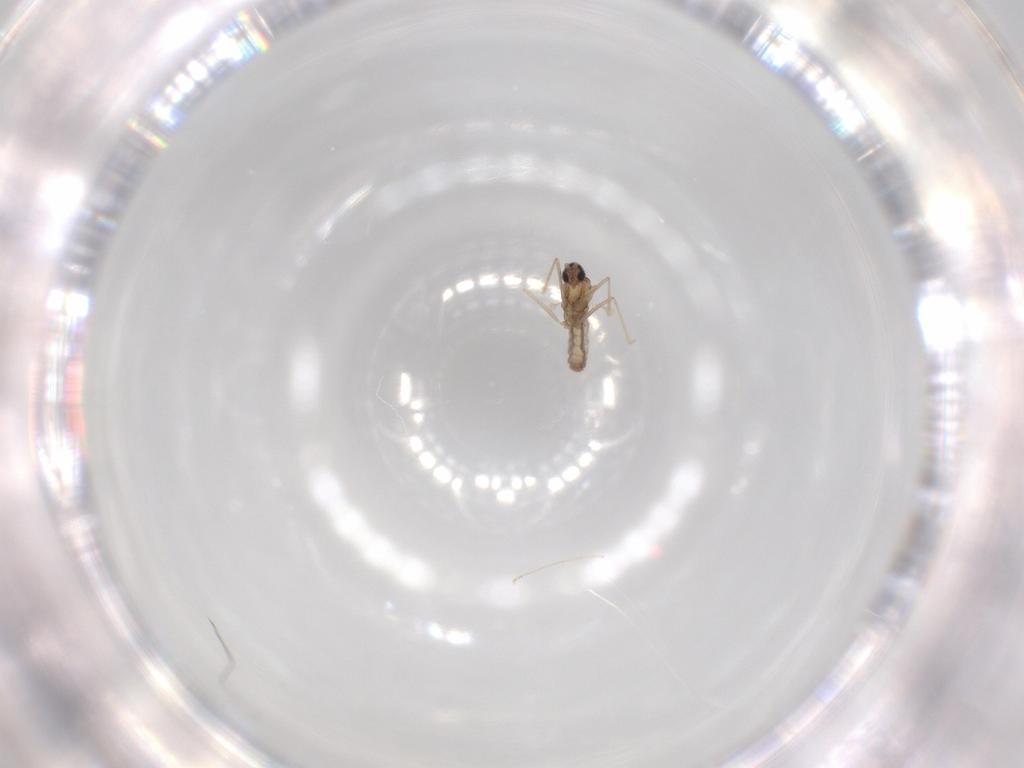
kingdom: Animalia
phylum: Arthropoda
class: Insecta
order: Diptera
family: Cecidomyiidae
